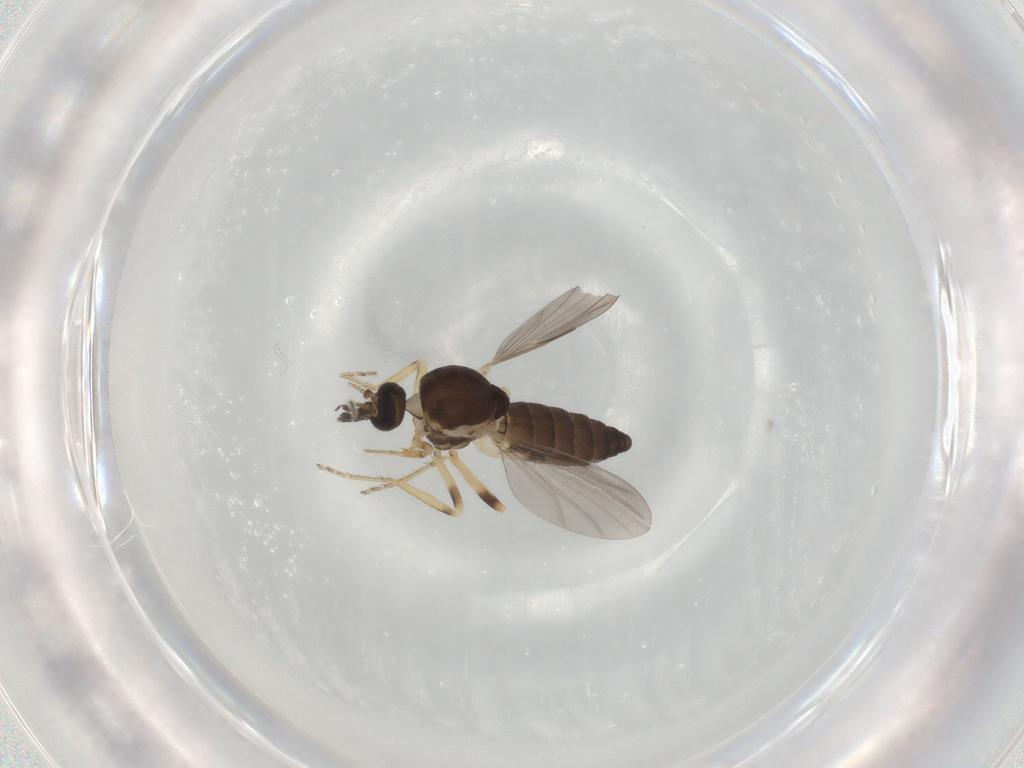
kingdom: Animalia
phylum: Arthropoda
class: Insecta
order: Diptera
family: Ceratopogonidae
